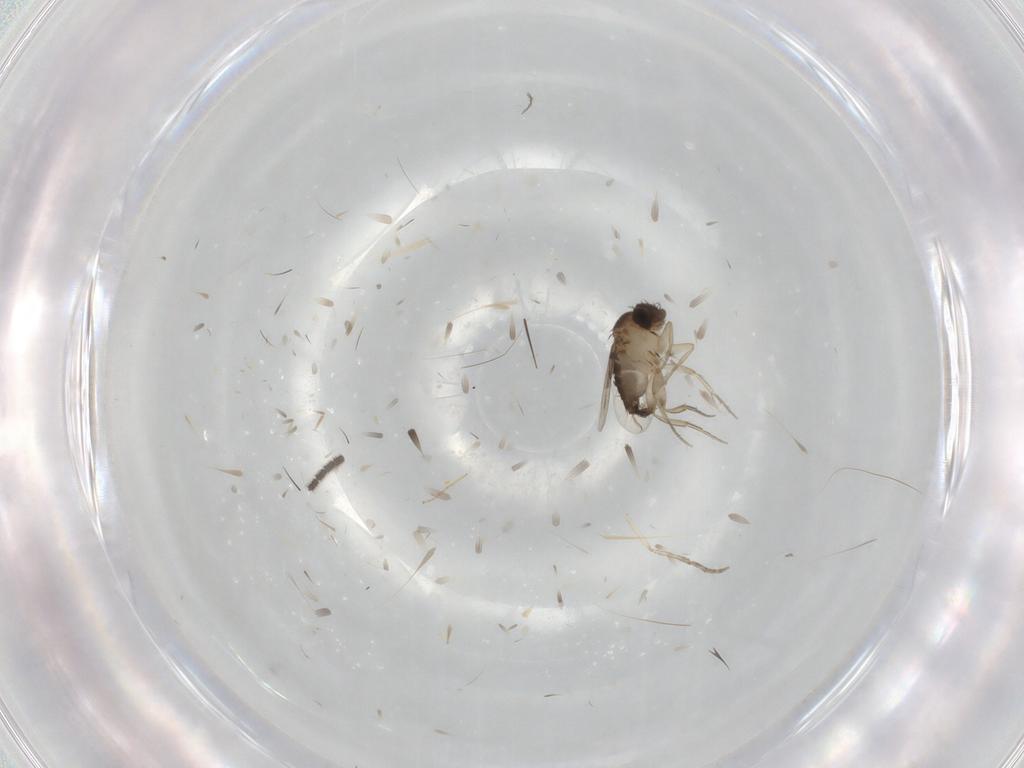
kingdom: Animalia
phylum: Arthropoda
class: Insecta
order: Diptera
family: Sciaridae
